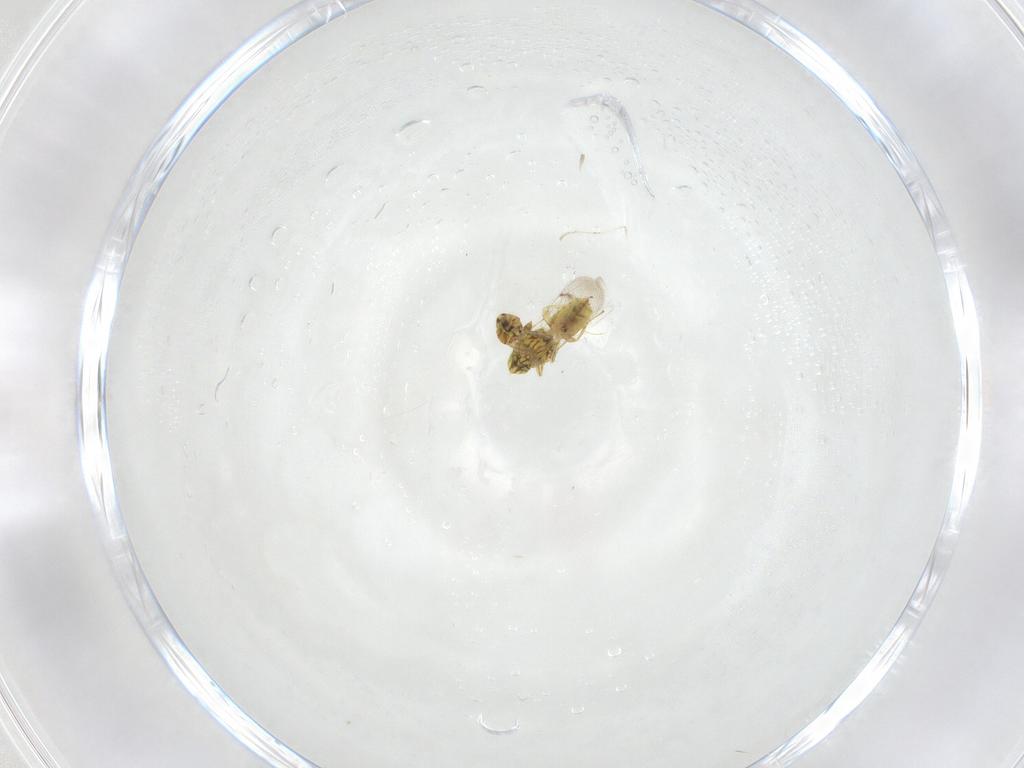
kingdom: Animalia
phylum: Arthropoda
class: Insecta
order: Hymenoptera
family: Eulophidae
